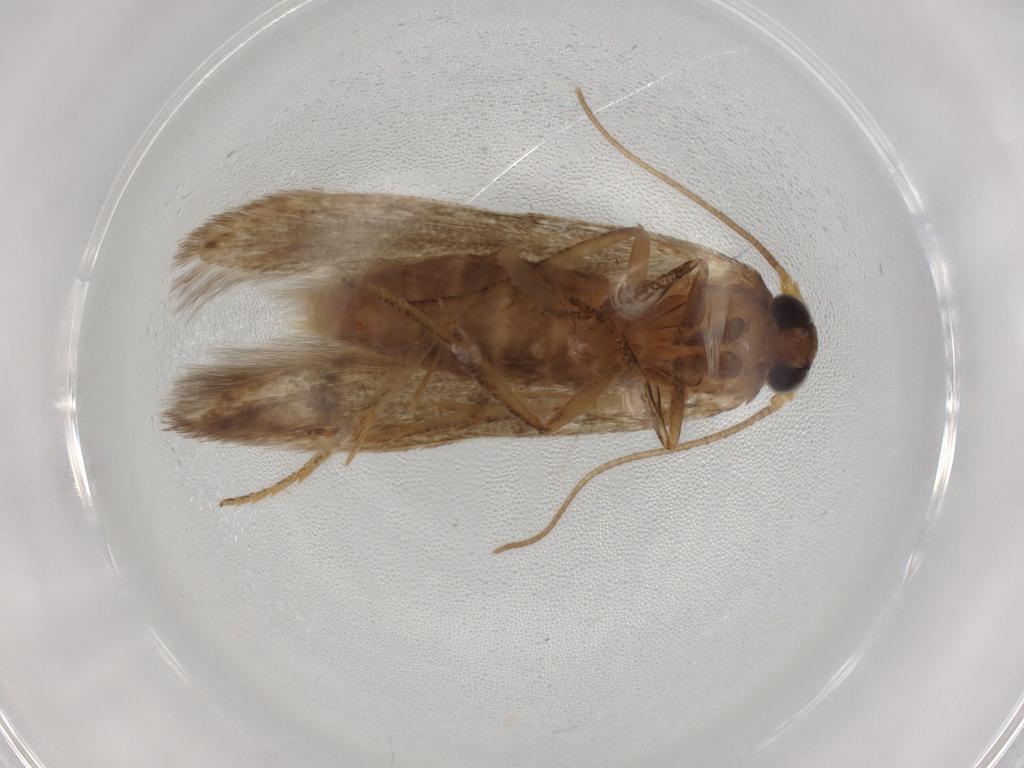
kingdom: Animalia
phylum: Arthropoda
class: Insecta
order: Lepidoptera
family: Blastobasidae
